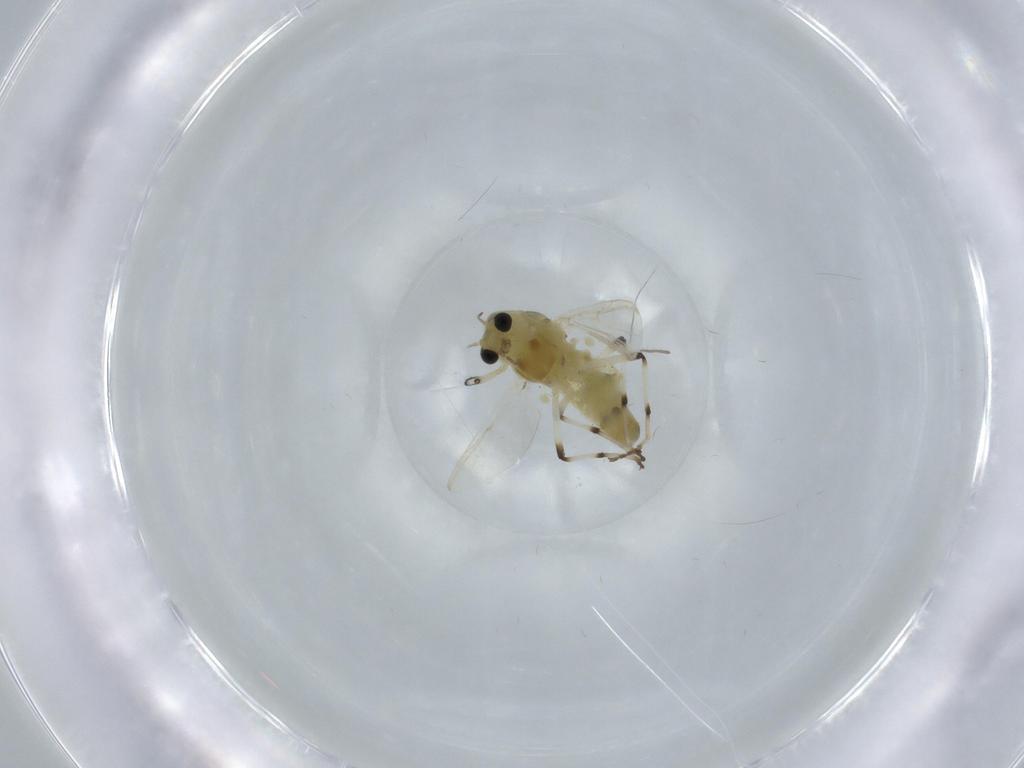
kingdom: Animalia
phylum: Arthropoda
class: Insecta
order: Diptera
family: Chironomidae
